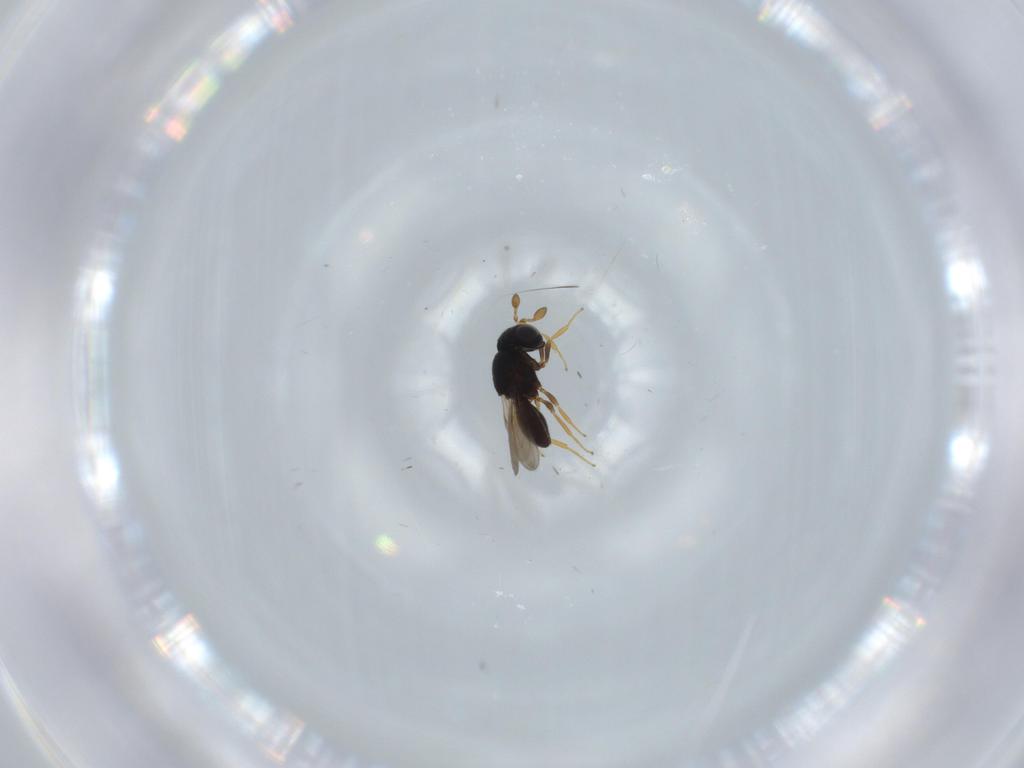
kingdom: Animalia
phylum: Arthropoda
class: Insecta
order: Hymenoptera
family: Scelionidae
